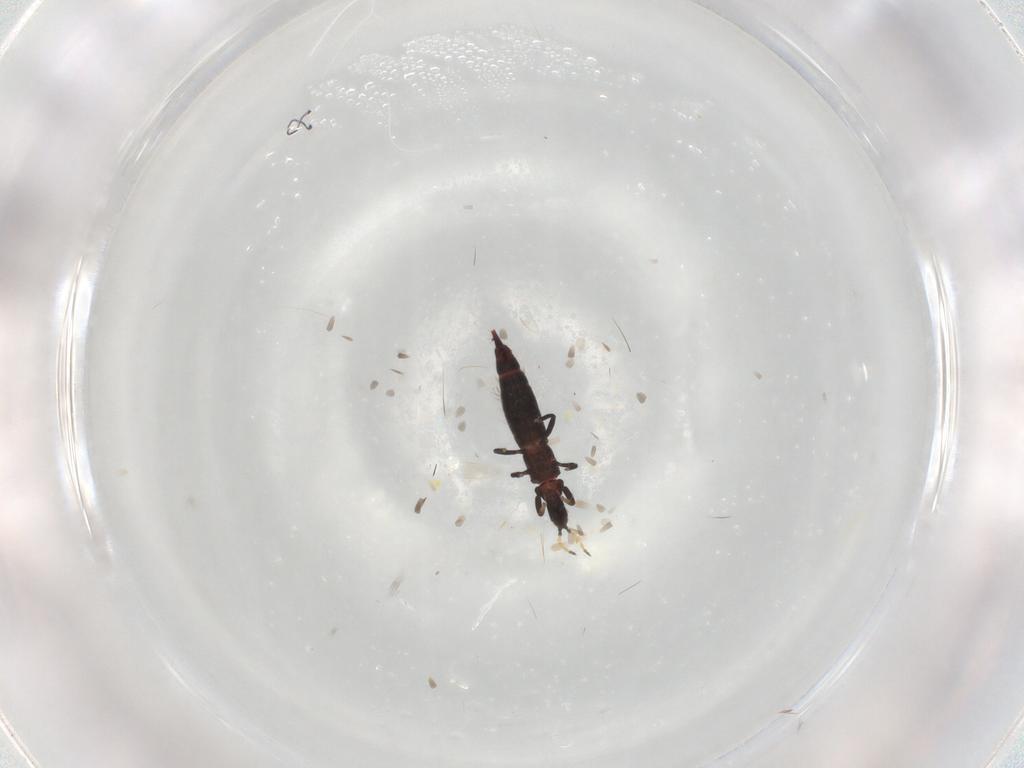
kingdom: Animalia
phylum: Arthropoda
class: Insecta
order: Thysanoptera
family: Phlaeothripidae
